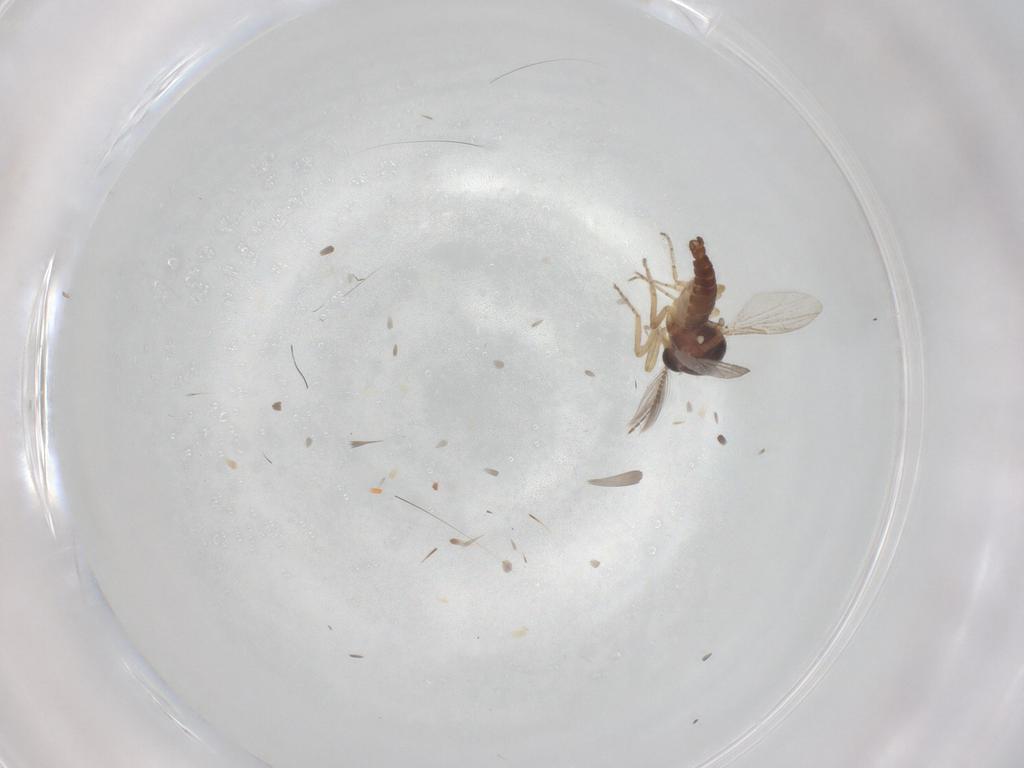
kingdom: Animalia
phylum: Arthropoda
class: Insecta
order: Diptera
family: Ceratopogonidae
